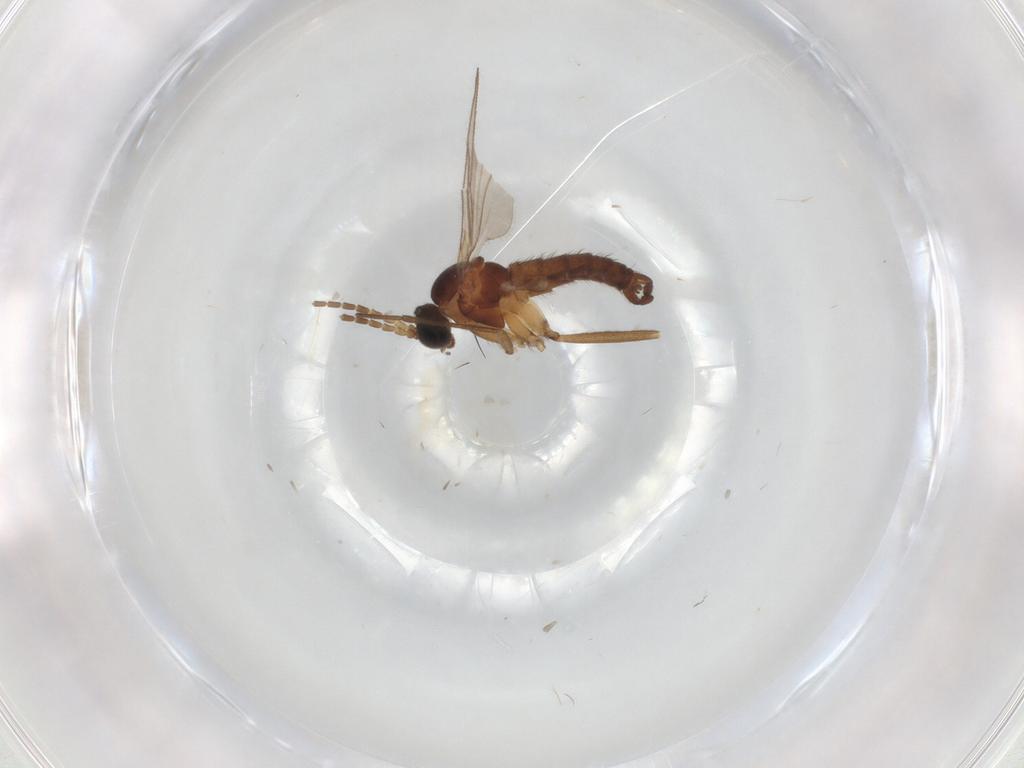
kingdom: Animalia
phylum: Arthropoda
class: Insecta
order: Diptera
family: Sciaridae
